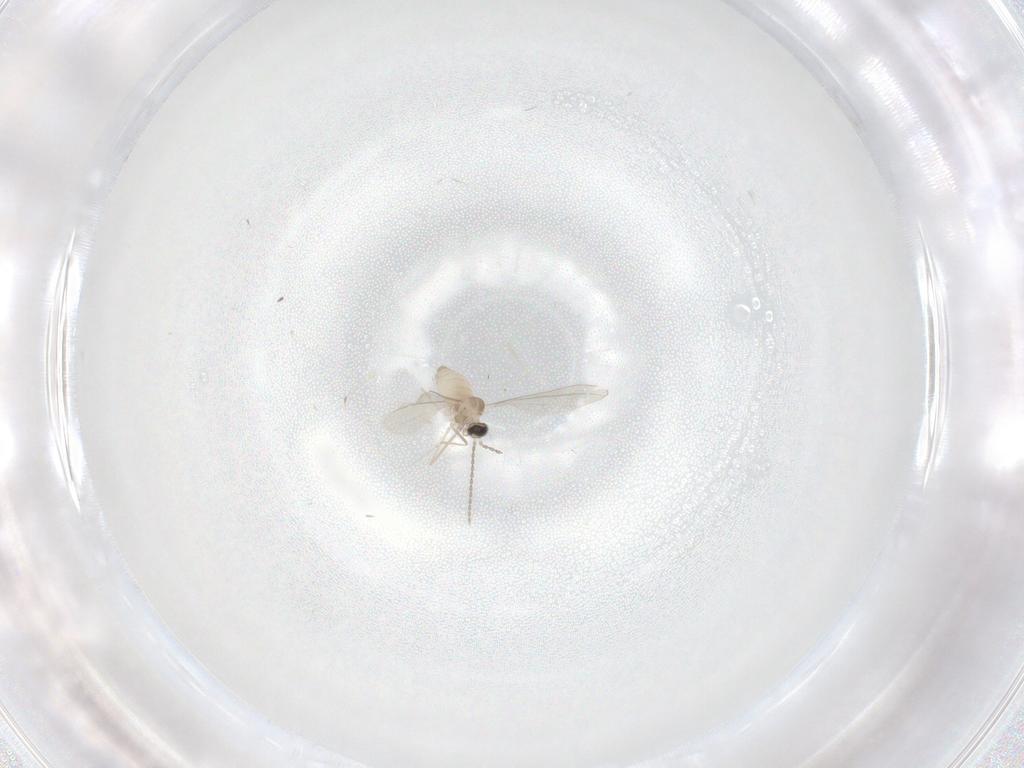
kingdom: Animalia
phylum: Arthropoda
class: Insecta
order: Diptera
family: Cecidomyiidae
